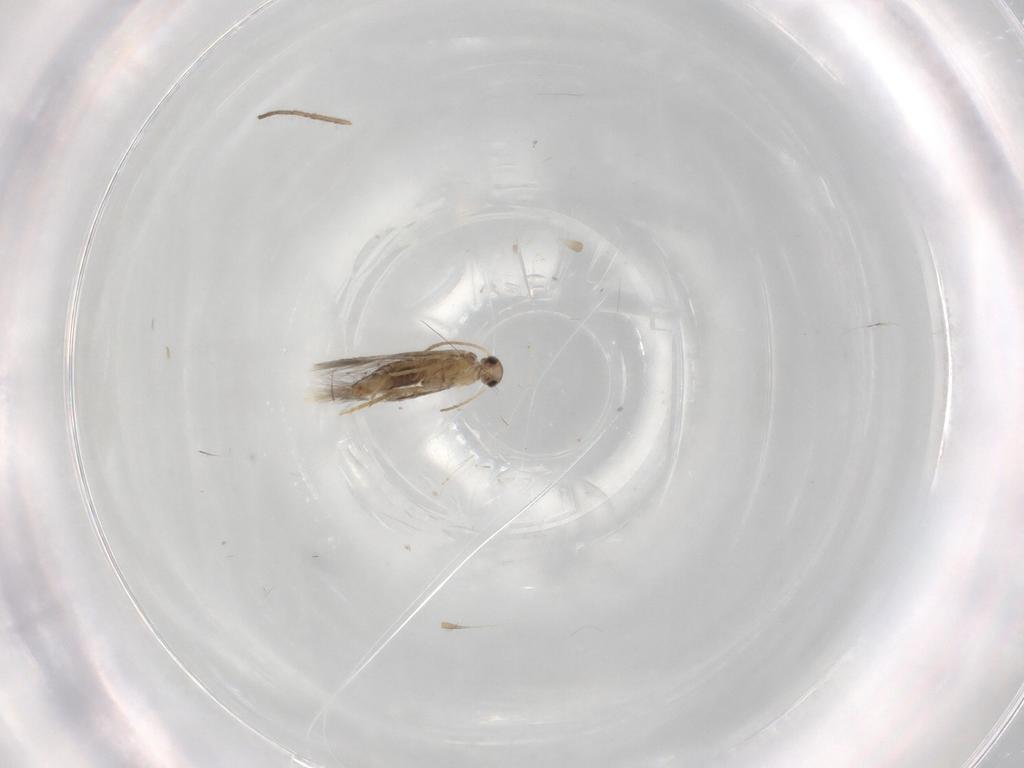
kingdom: Animalia
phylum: Arthropoda
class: Insecta
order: Lepidoptera
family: Heliozelidae
